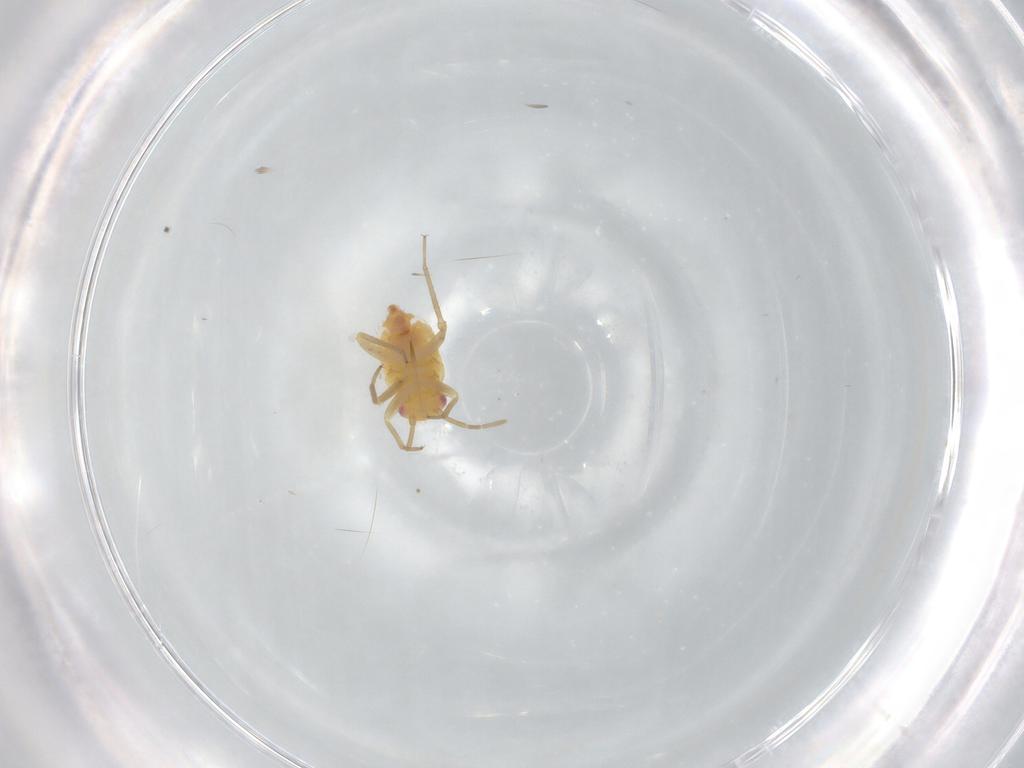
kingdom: Animalia
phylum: Arthropoda
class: Insecta
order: Hemiptera
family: Miridae
